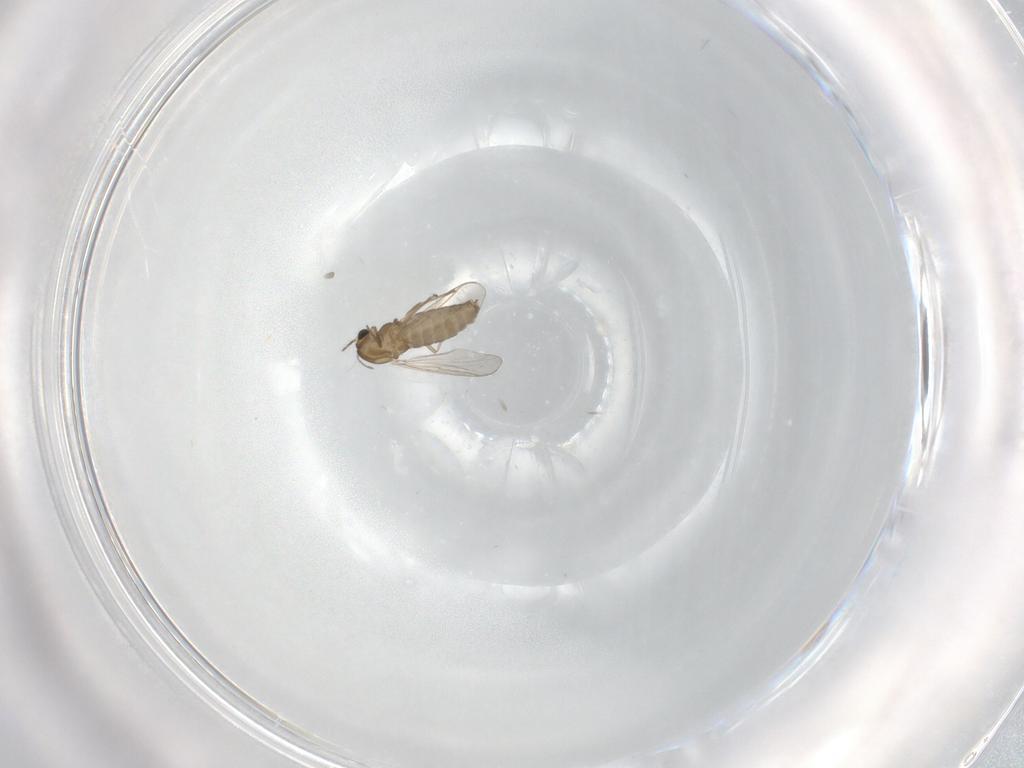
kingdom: Animalia
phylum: Arthropoda
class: Insecta
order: Diptera
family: Chironomidae
